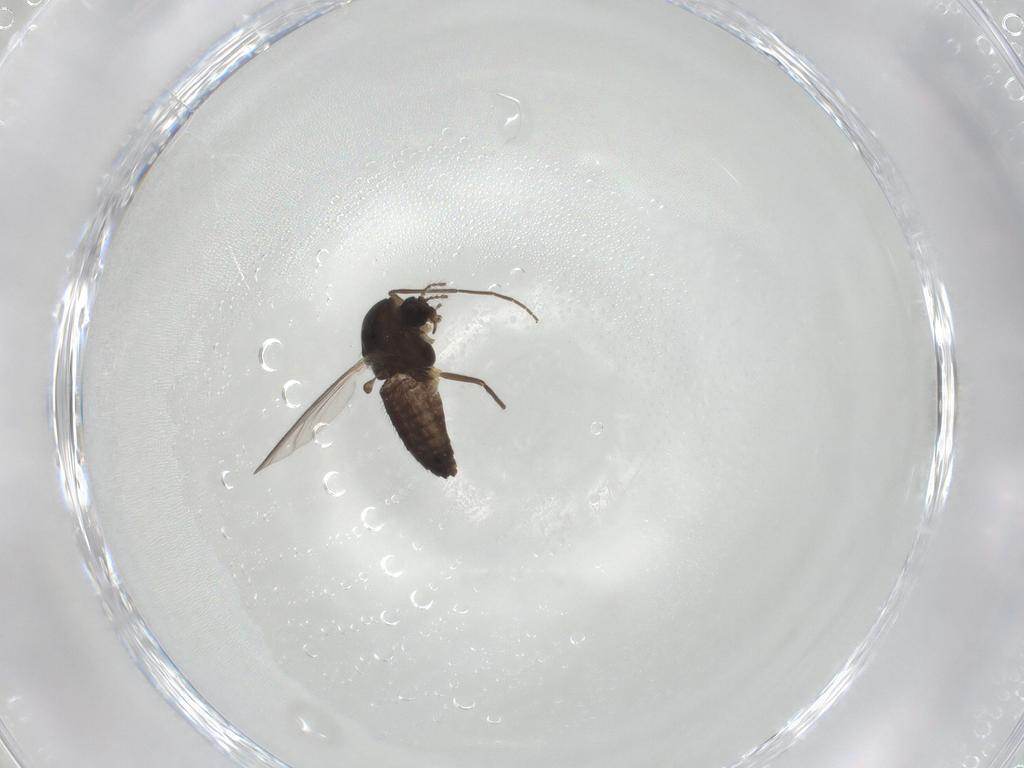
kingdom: Animalia
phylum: Arthropoda
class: Insecta
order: Diptera
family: Chironomidae
